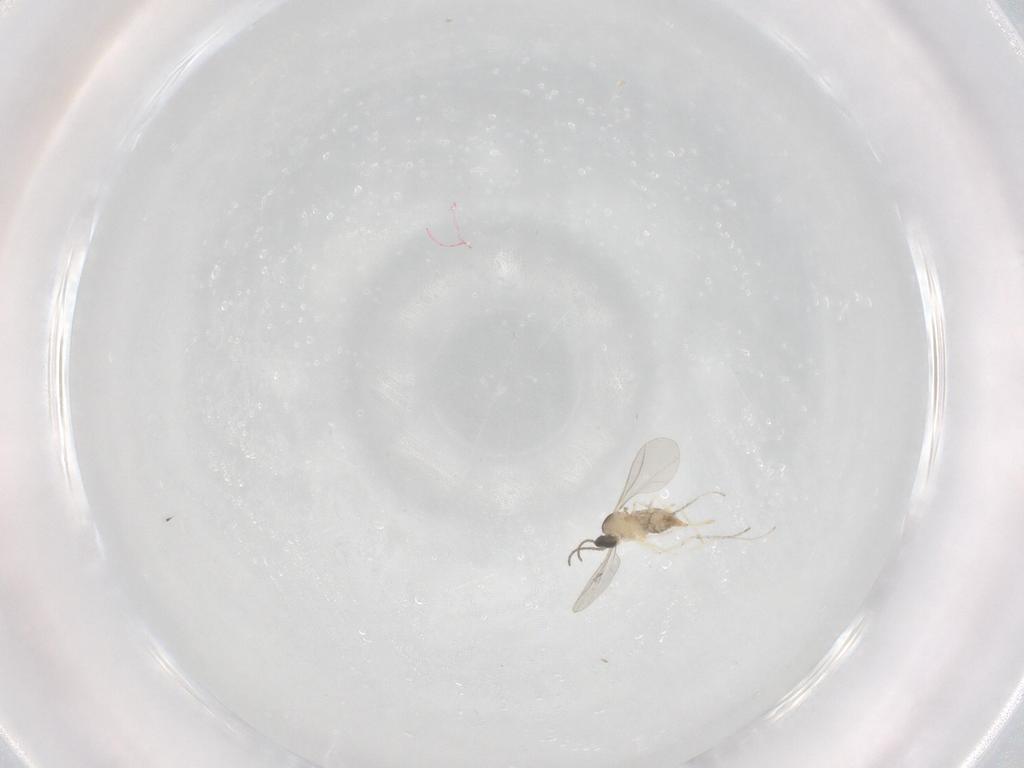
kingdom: Animalia
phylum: Arthropoda
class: Insecta
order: Diptera
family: Cecidomyiidae
